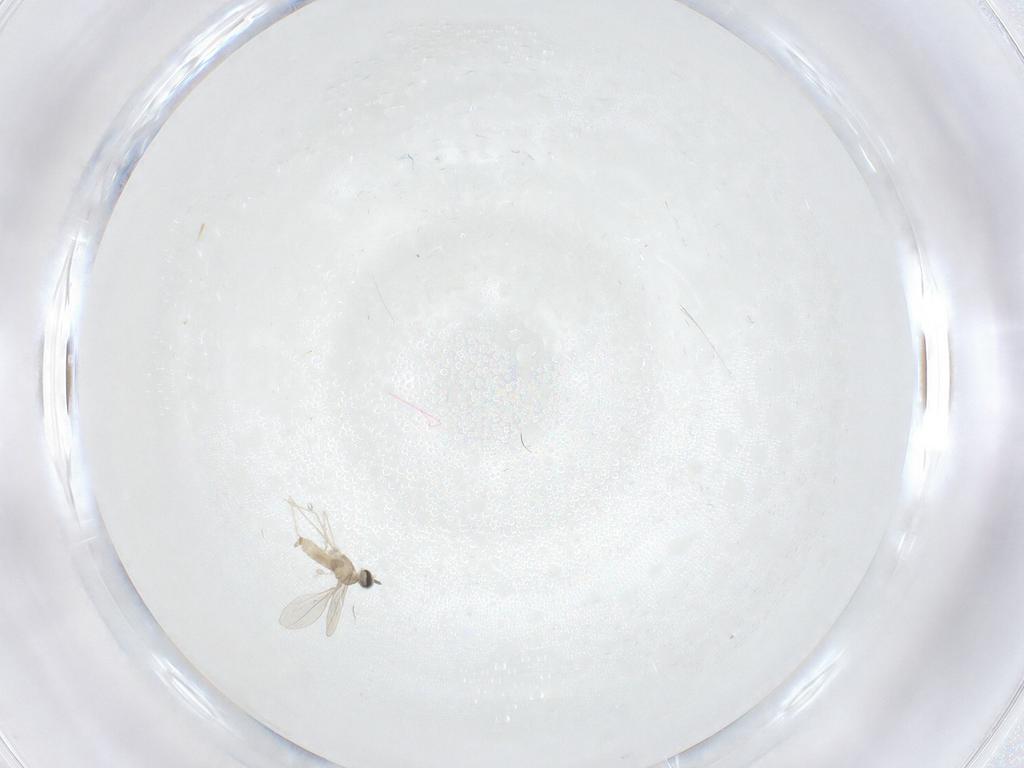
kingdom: Animalia
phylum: Arthropoda
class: Insecta
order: Diptera
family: Cecidomyiidae
